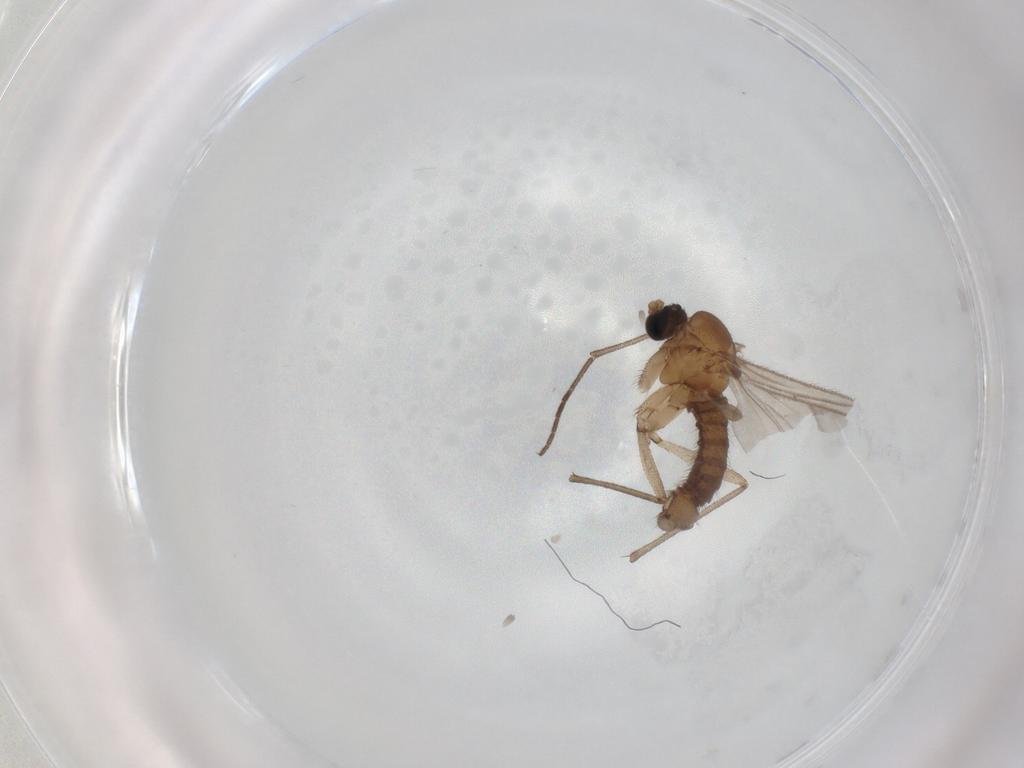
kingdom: Animalia
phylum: Arthropoda
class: Insecta
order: Diptera
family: Sciaridae
